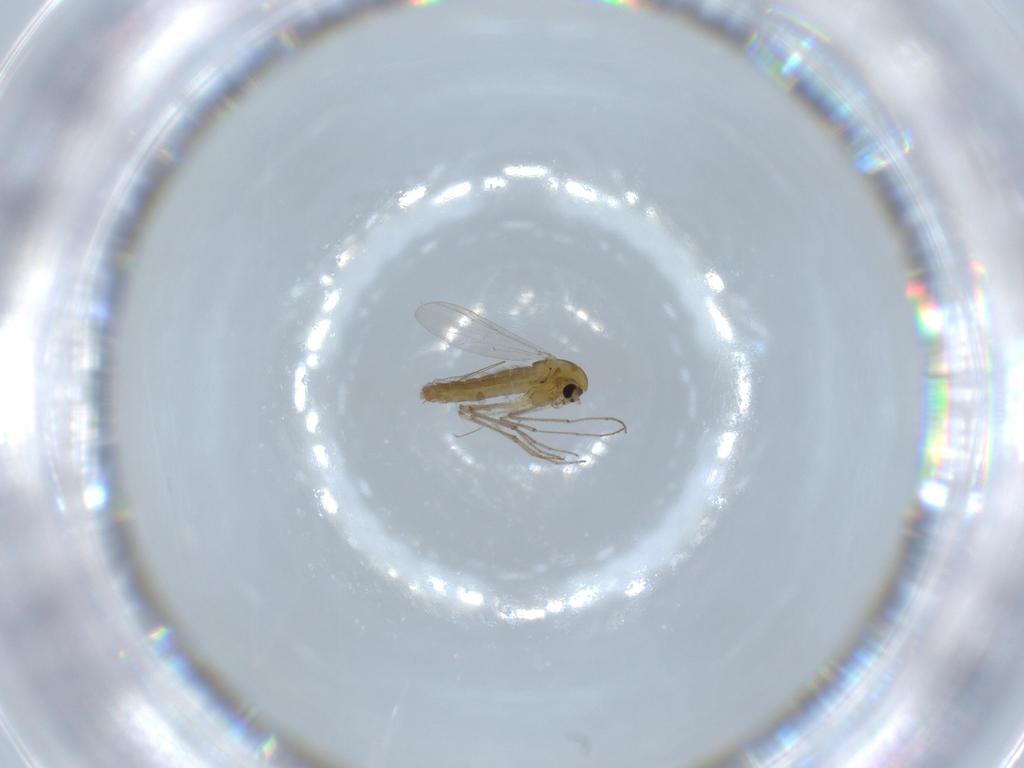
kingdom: Animalia
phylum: Arthropoda
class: Insecta
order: Diptera
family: Chironomidae
